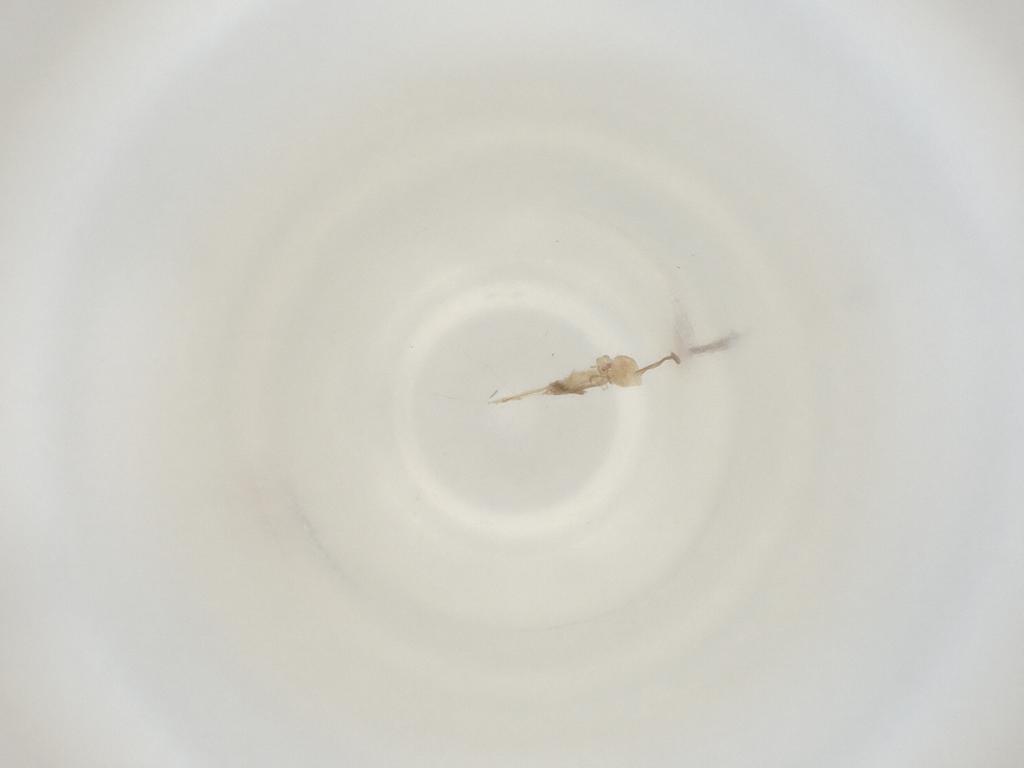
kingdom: Animalia
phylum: Arthropoda
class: Insecta
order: Diptera
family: Cecidomyiidae
